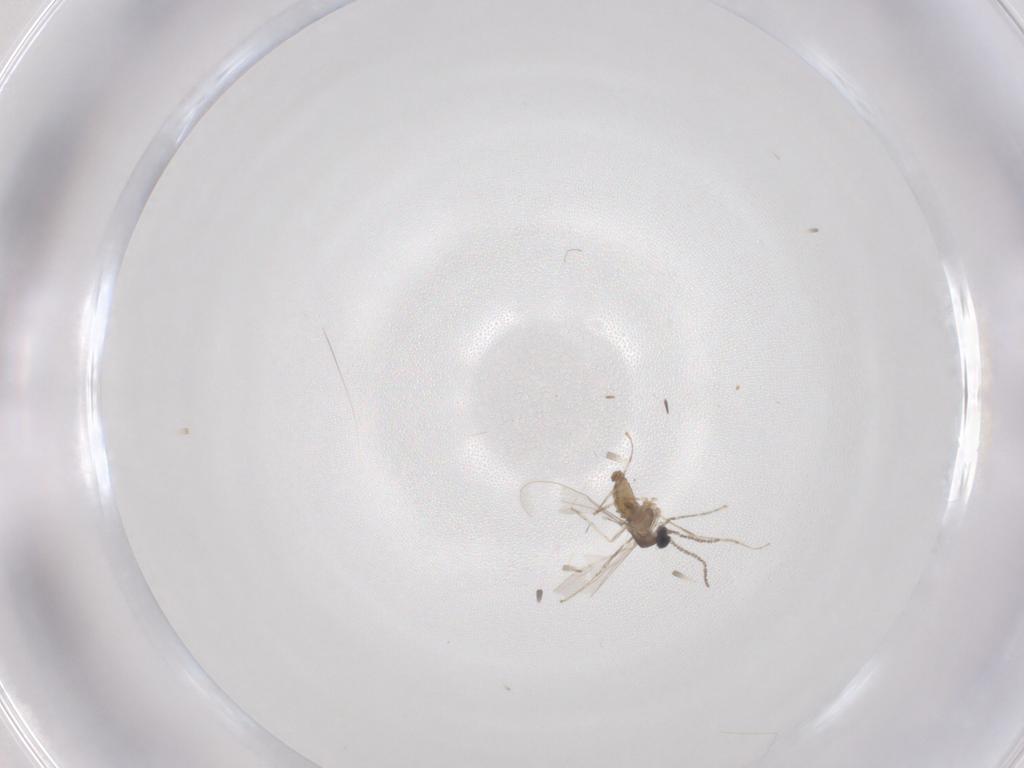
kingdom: Animalia
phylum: Arthropoda
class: Insecta
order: Diptera
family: Cecidomyiidae
